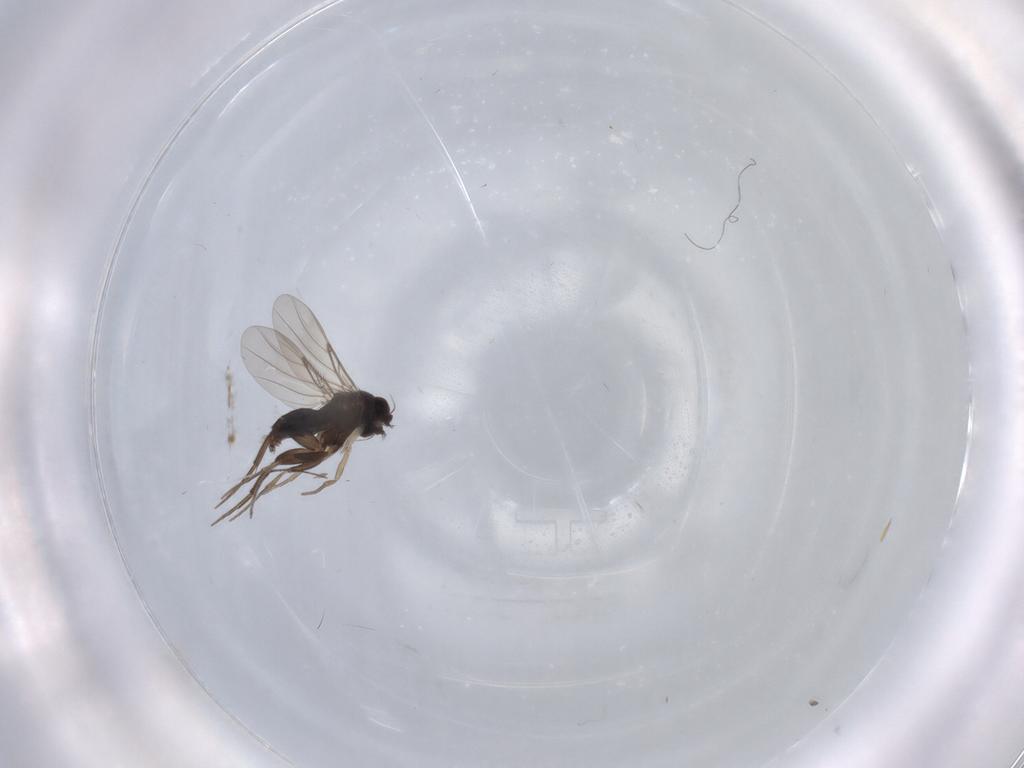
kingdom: Animalia
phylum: Arthropoda
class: Insecta
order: Diptera
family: Phoridae
